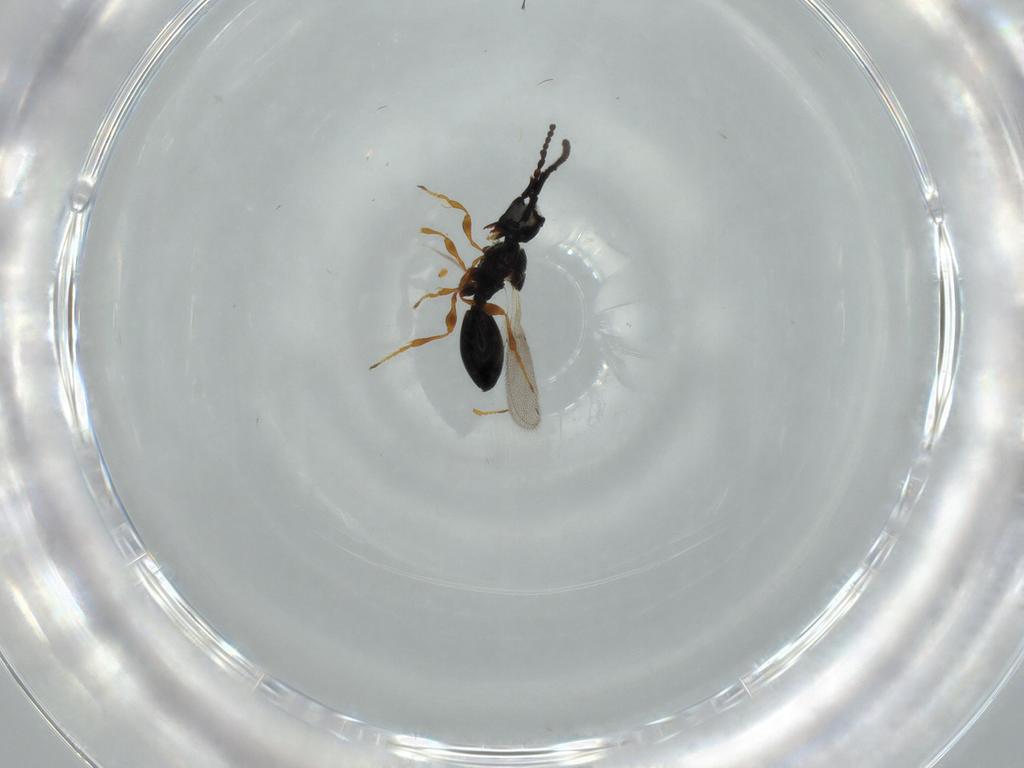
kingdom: Animalia
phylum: Arthropoda
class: Insecta
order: Hymenoptera
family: Diapriidae
